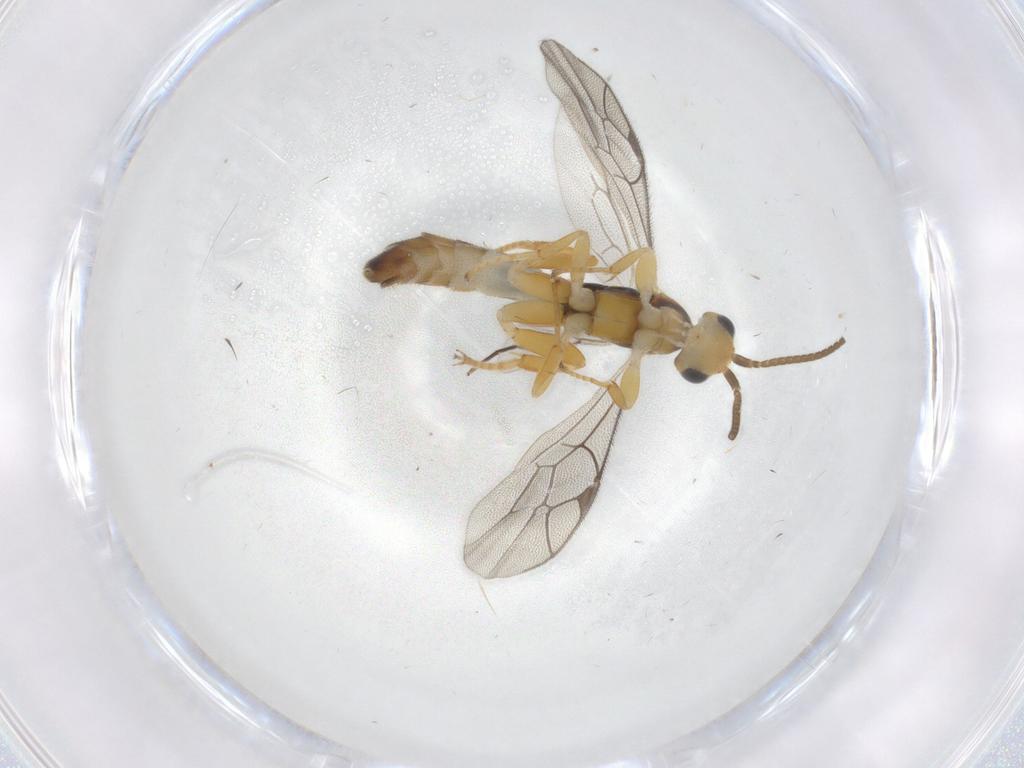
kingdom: Animalia
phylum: Arthropoda
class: Insecta
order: Hymenoptera
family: Ichneumonidae
